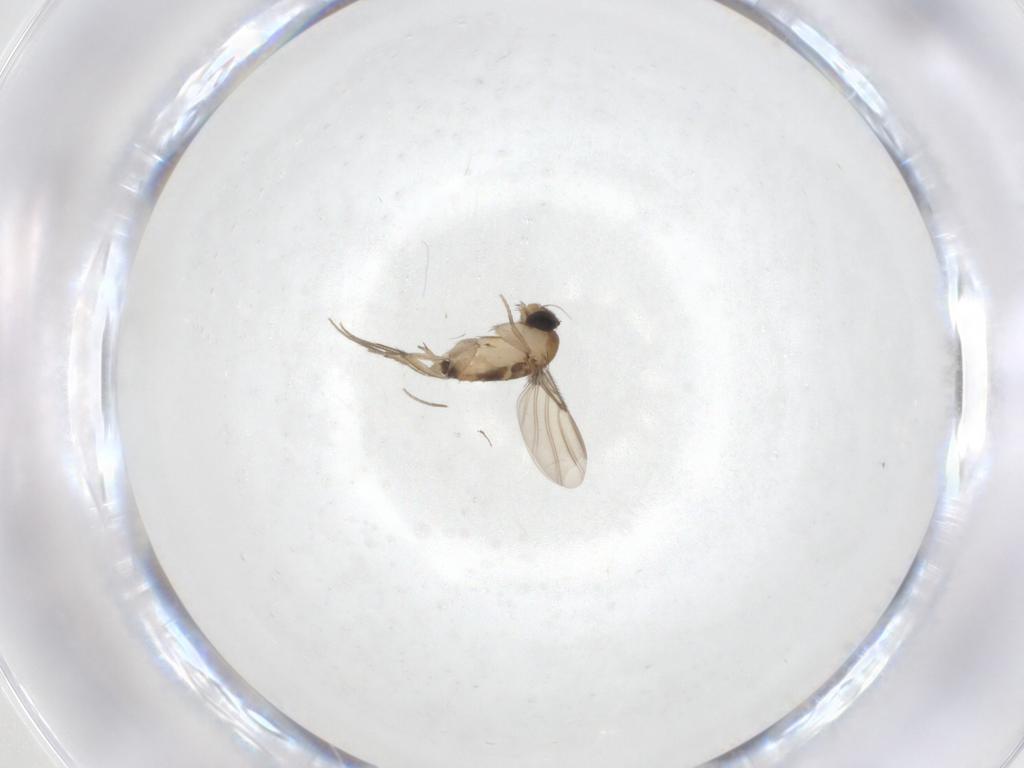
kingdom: Animalia
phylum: Arthropoda
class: Insecta
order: Diptera
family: Phoridae
